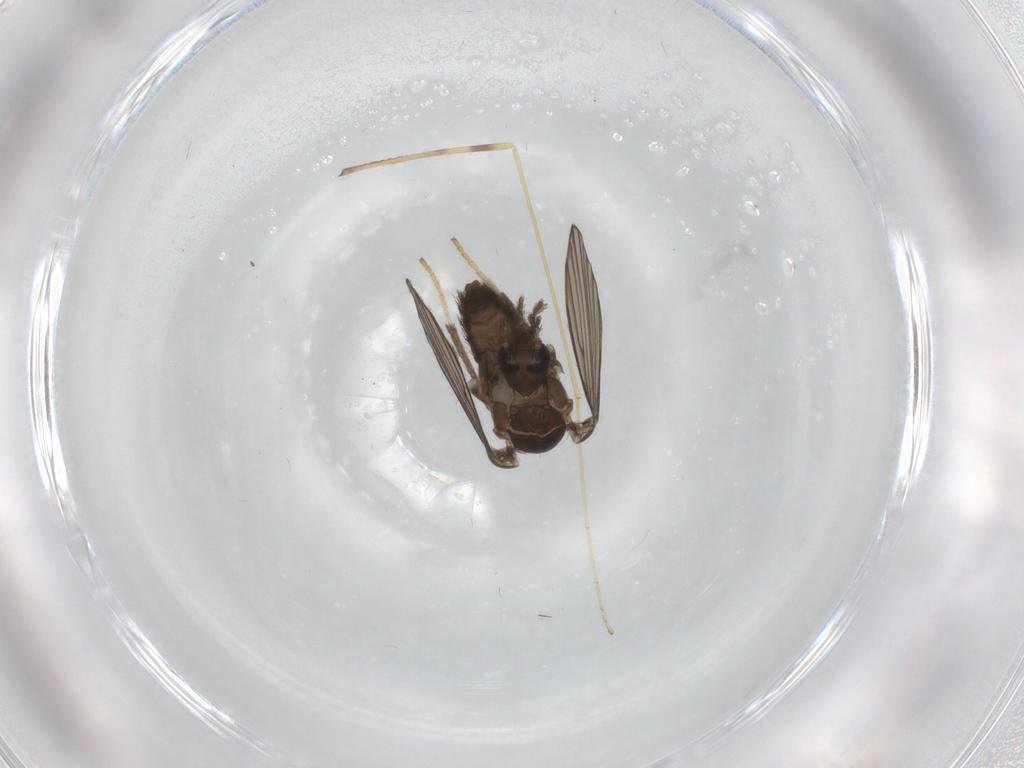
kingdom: Animalia
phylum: Arthropoda
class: Insecta
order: Diptera
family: Psychodidae
